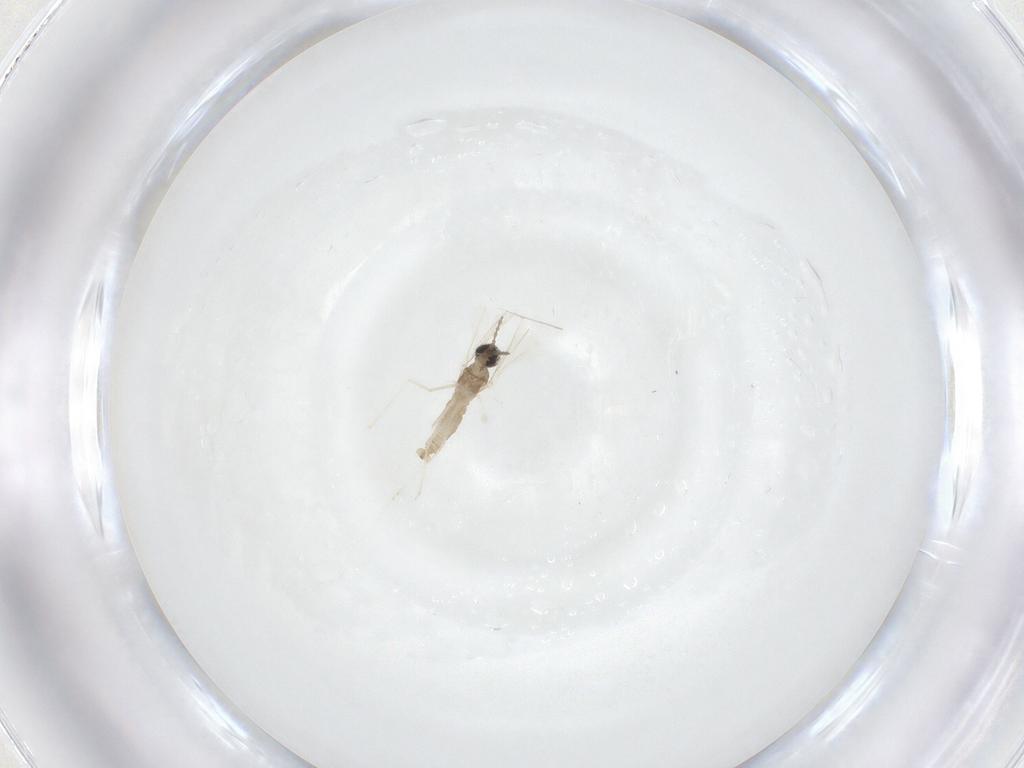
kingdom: Animalia
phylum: Arthropoda
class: Insecta
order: Diptera
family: Cecidomyiidae
